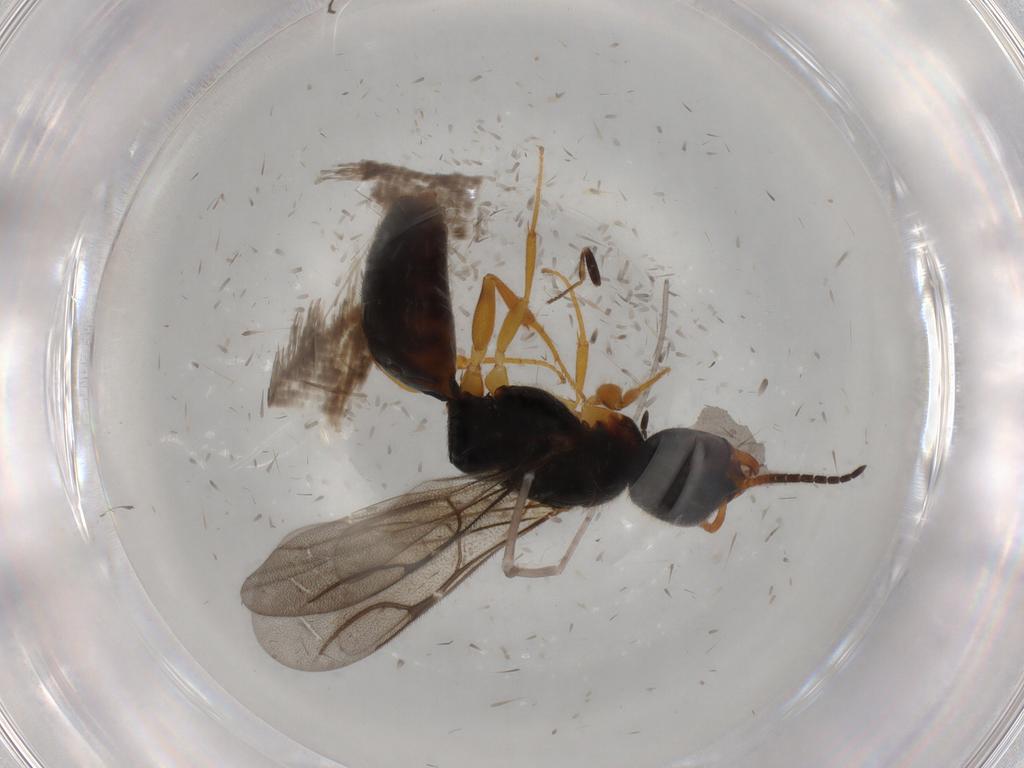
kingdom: Animalia
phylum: Arthropoda
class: Insecta
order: Hymenoptera
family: Bethylidae
